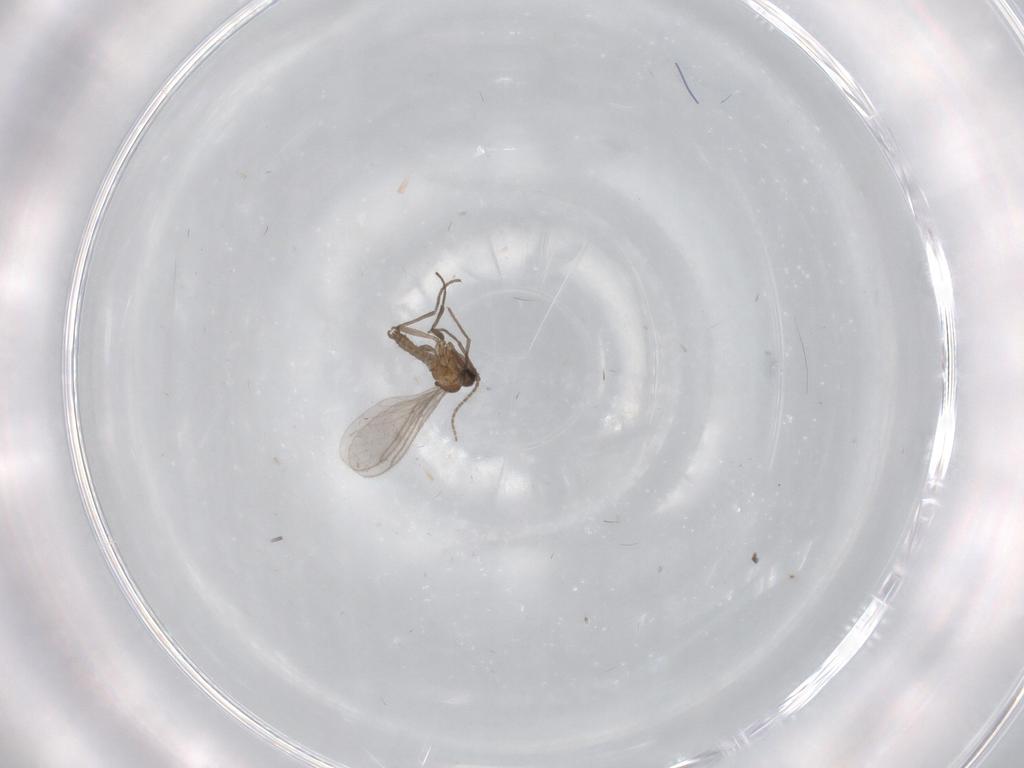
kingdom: Animalia
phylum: Arthropoda
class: Insecta
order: Diptera
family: Sciaridae
